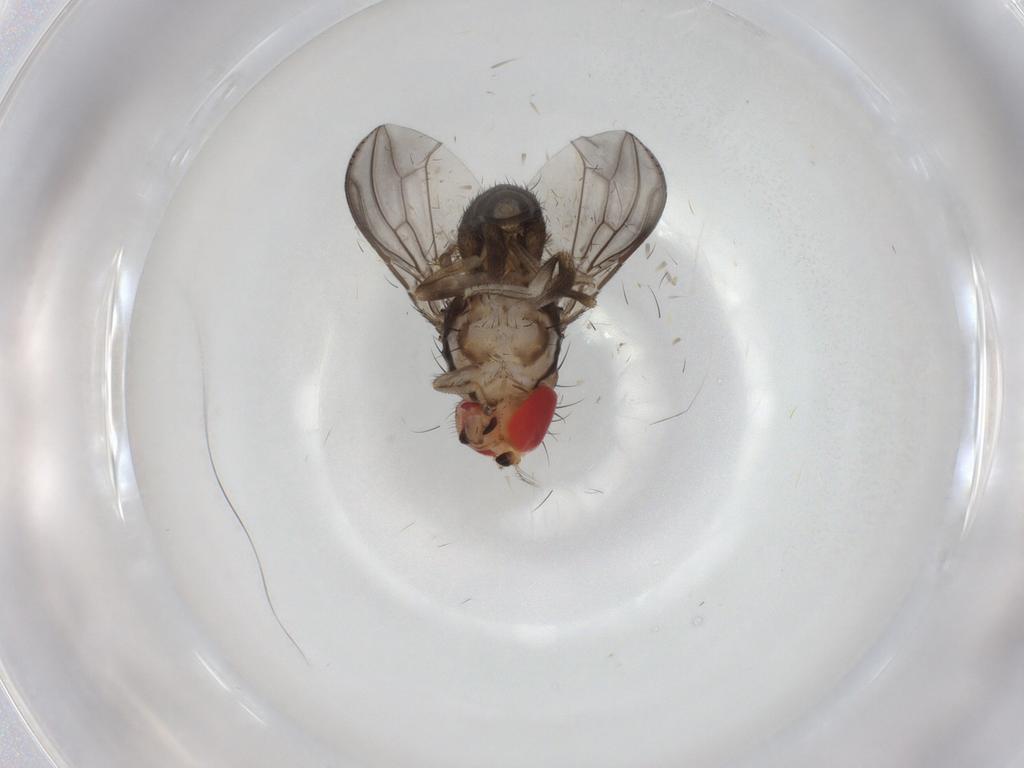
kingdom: Animalia
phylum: Arthropoda
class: Insecta
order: Diptera
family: Drosophilidae
